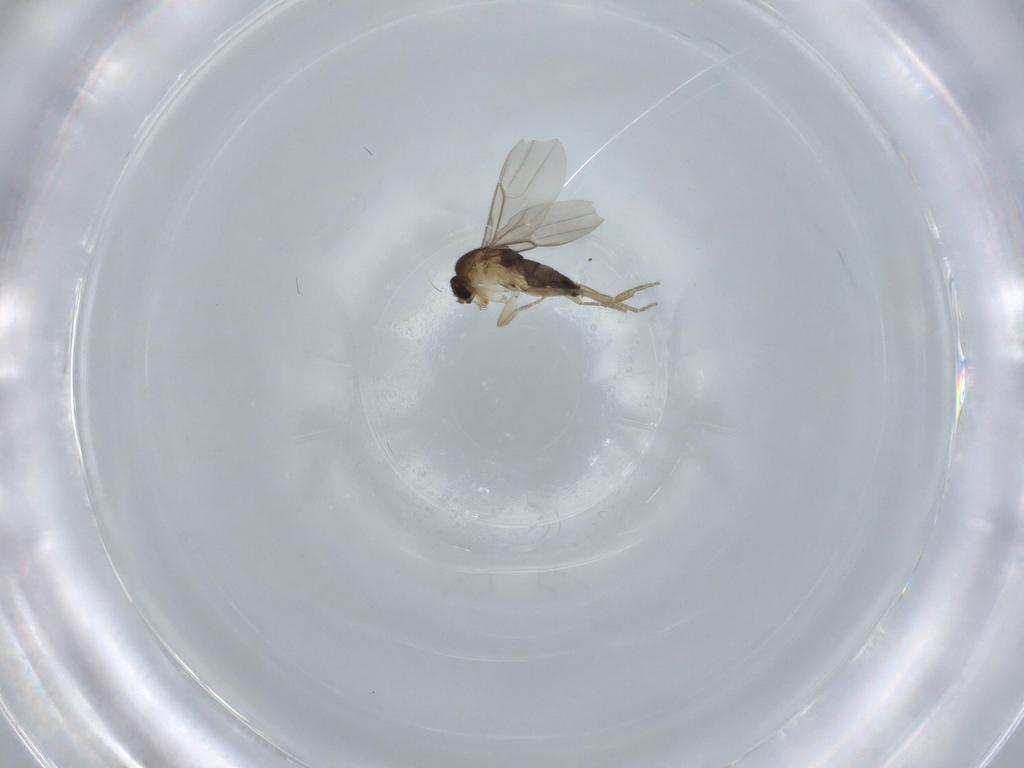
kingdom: Animalia
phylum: Arthropoda
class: Insecta
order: Diptera
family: Phoridae
